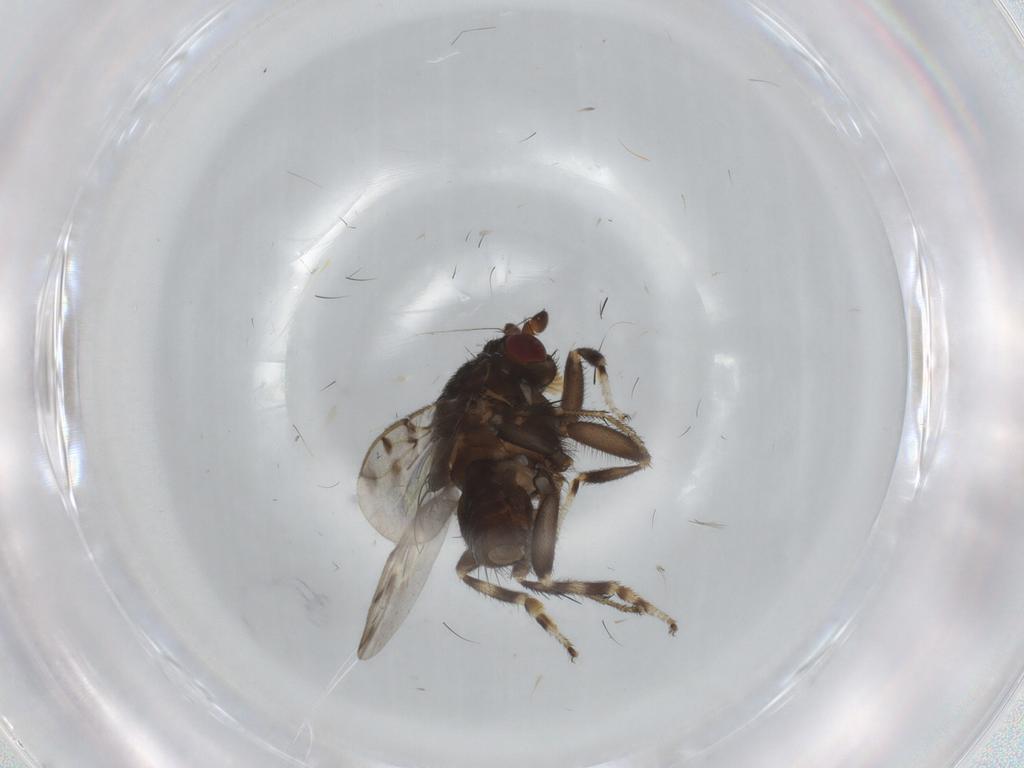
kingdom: Animalia
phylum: Arthropoda
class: Insecta
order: Diptera
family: Sphaeroceridae
